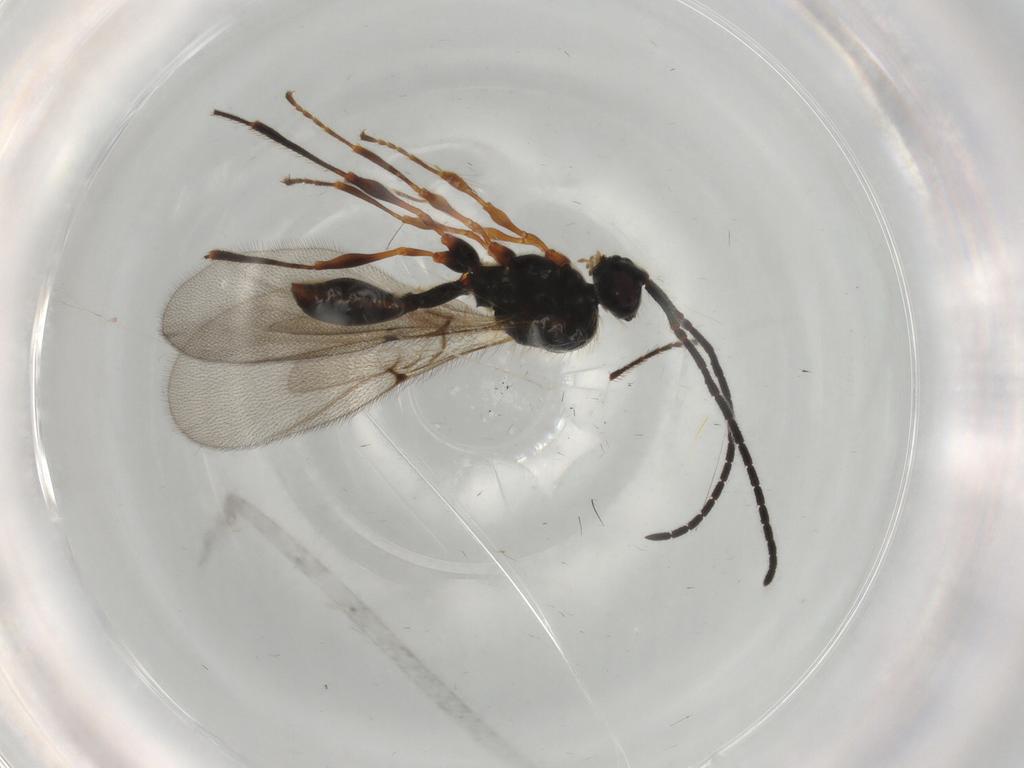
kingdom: Animalia
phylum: Arthropoda
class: Insecta
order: Hymenoptera
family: Diapriidae
